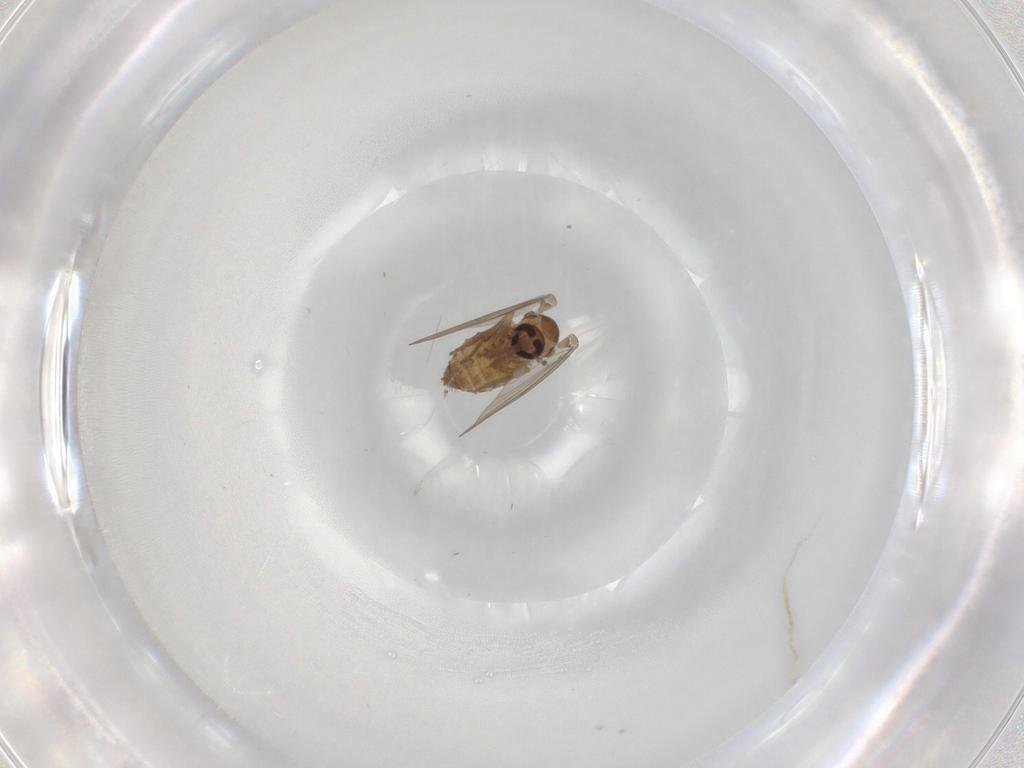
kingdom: Animalia
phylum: Arthropoda
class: Insecta
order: Diptera
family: Psychodidae
